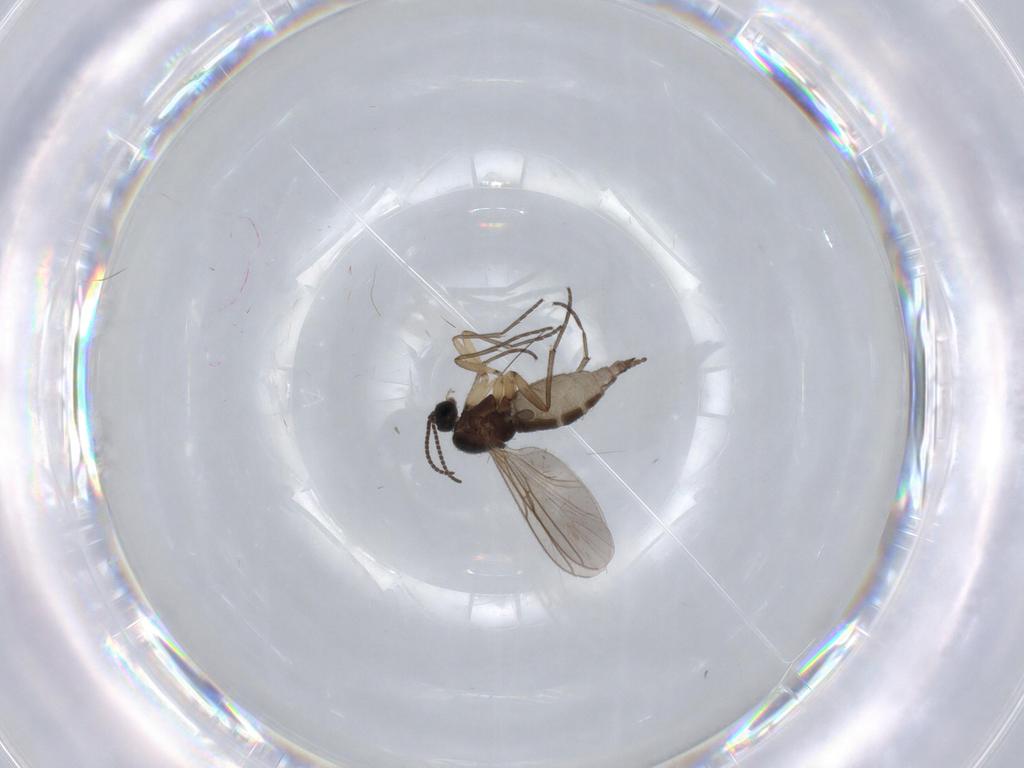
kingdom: Animalia
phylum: Arthropoda
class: Insecta
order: Diptera
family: Sciaridae
